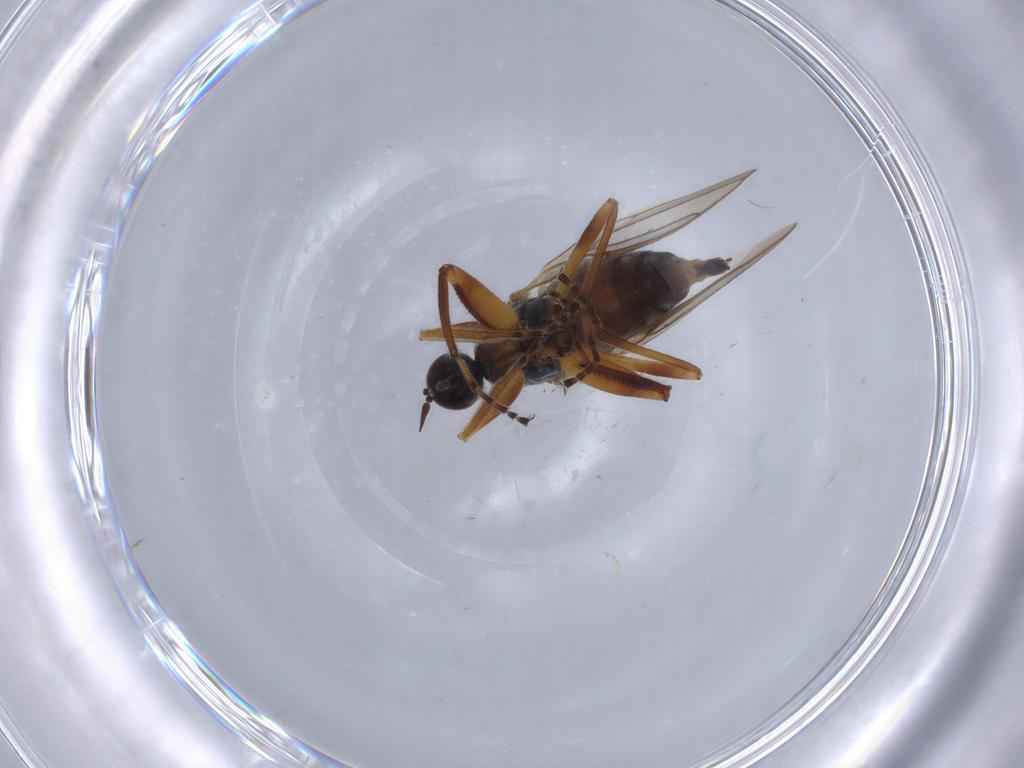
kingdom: Animalia
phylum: Arthropoda
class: Insecta
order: Diptera
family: Hybotidae
